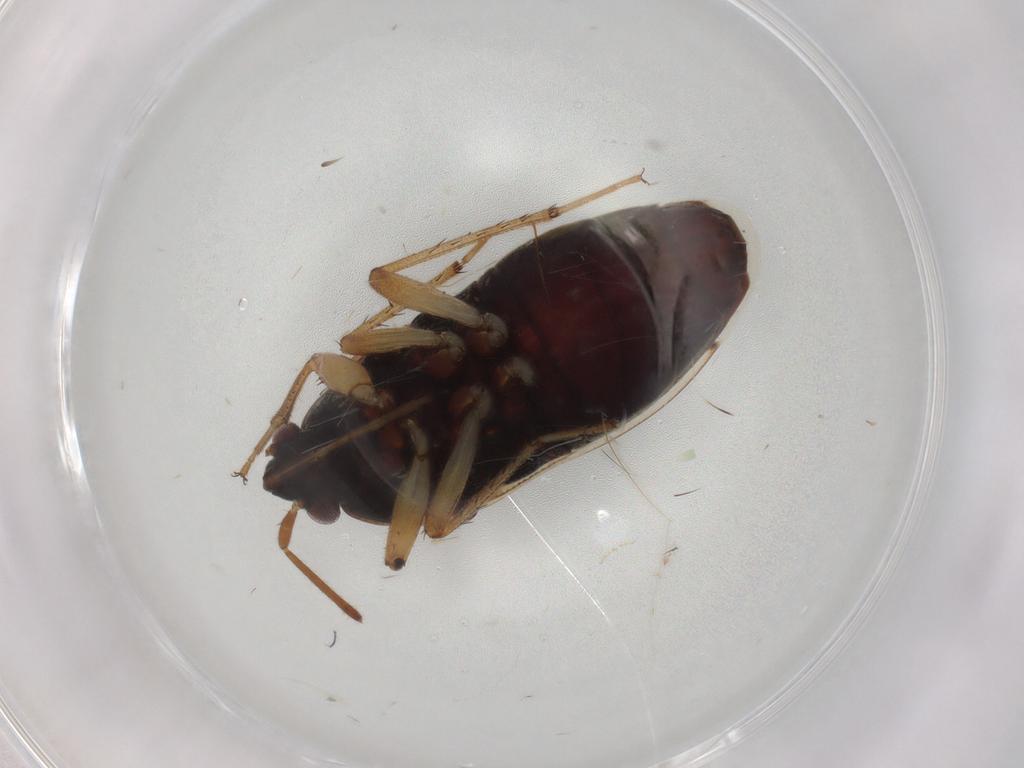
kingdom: Animalia
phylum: Arthropoda
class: Insecta
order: Hemiptera
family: Rhyparochromidae
